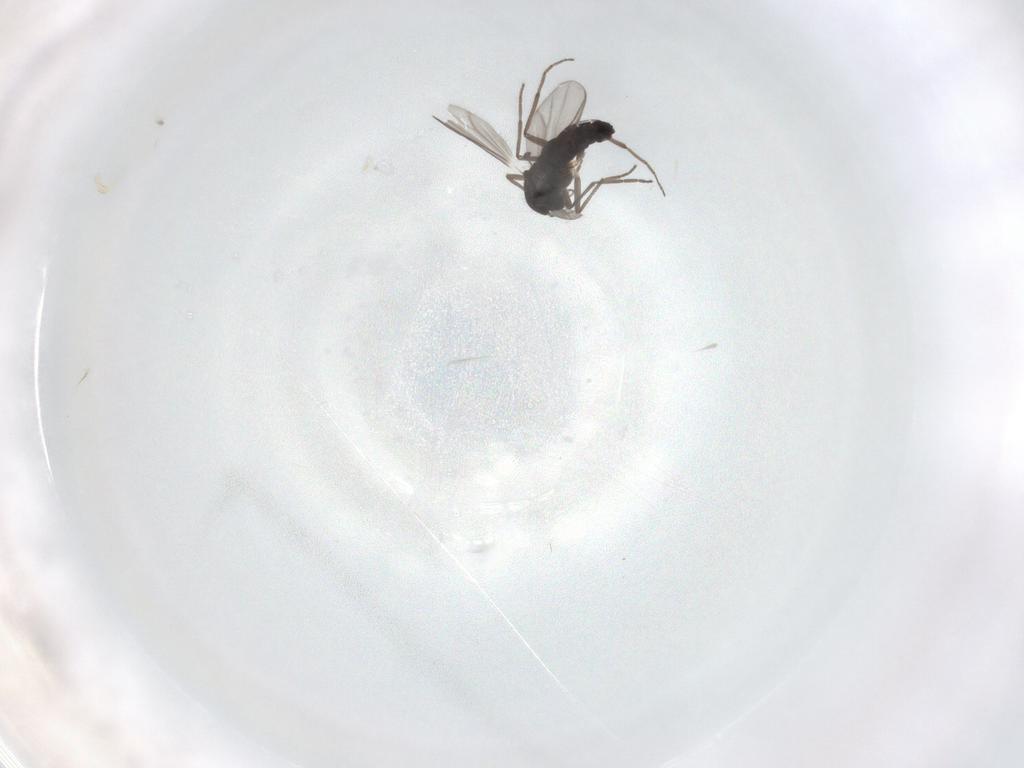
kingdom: Animalia
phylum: Arthropoda
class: Insecta
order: Diptera
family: Chironomidae
